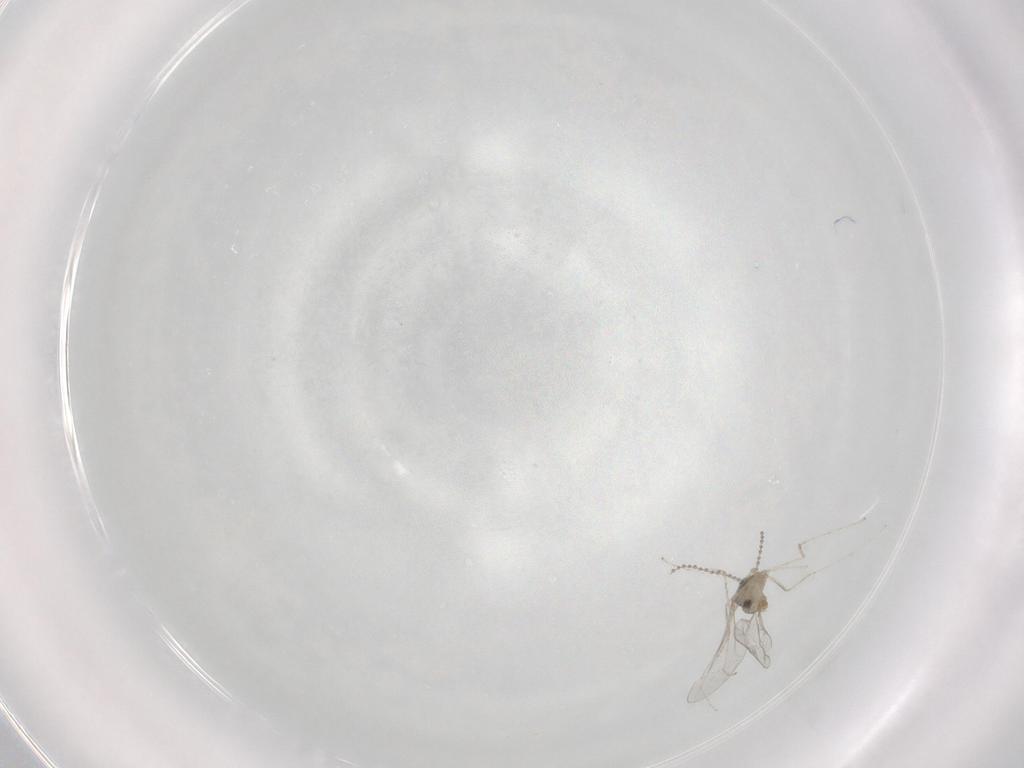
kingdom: Animalia
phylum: Arthropoda
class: Insecta
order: Diptera
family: Cecidomyiidae
